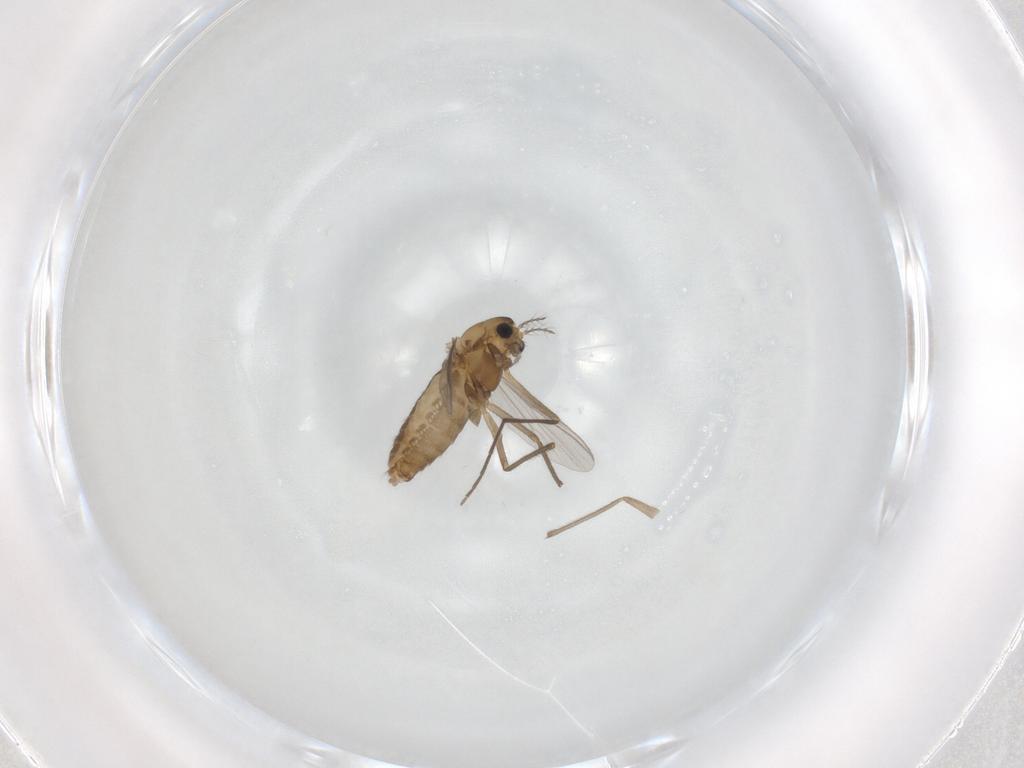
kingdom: Animalia
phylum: Arthropoda
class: Insecta
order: Diptera
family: Chironomidae
